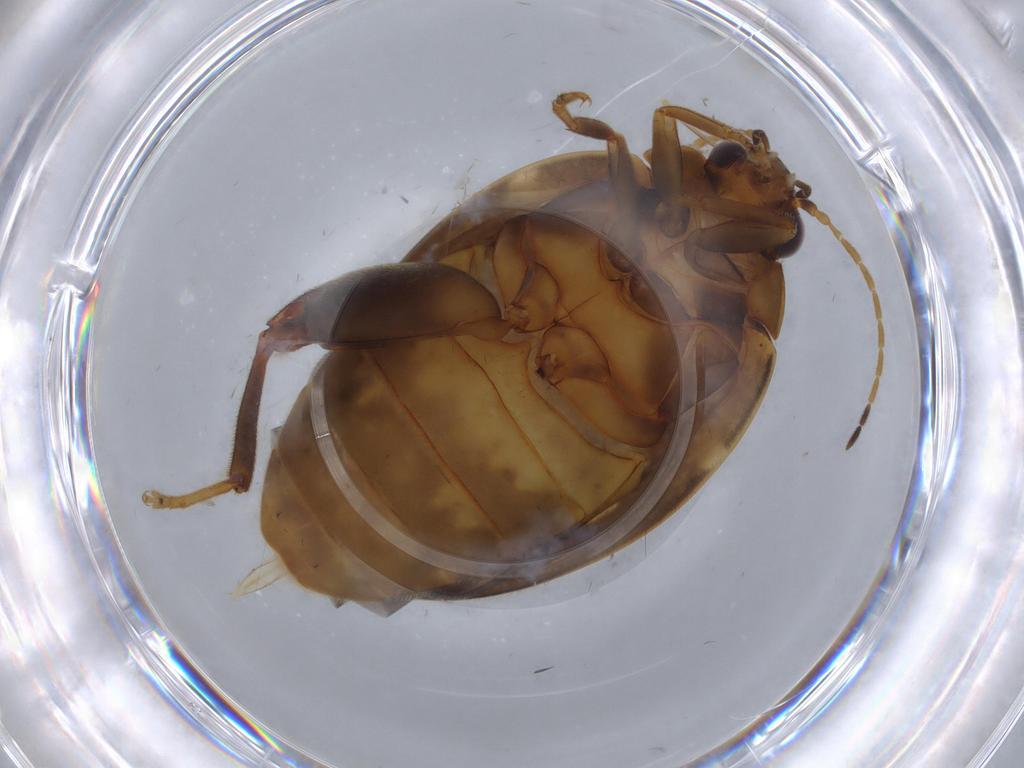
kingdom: Animalia
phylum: Arthropoda
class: Insecta
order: Coleoptera
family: Scirtidae
